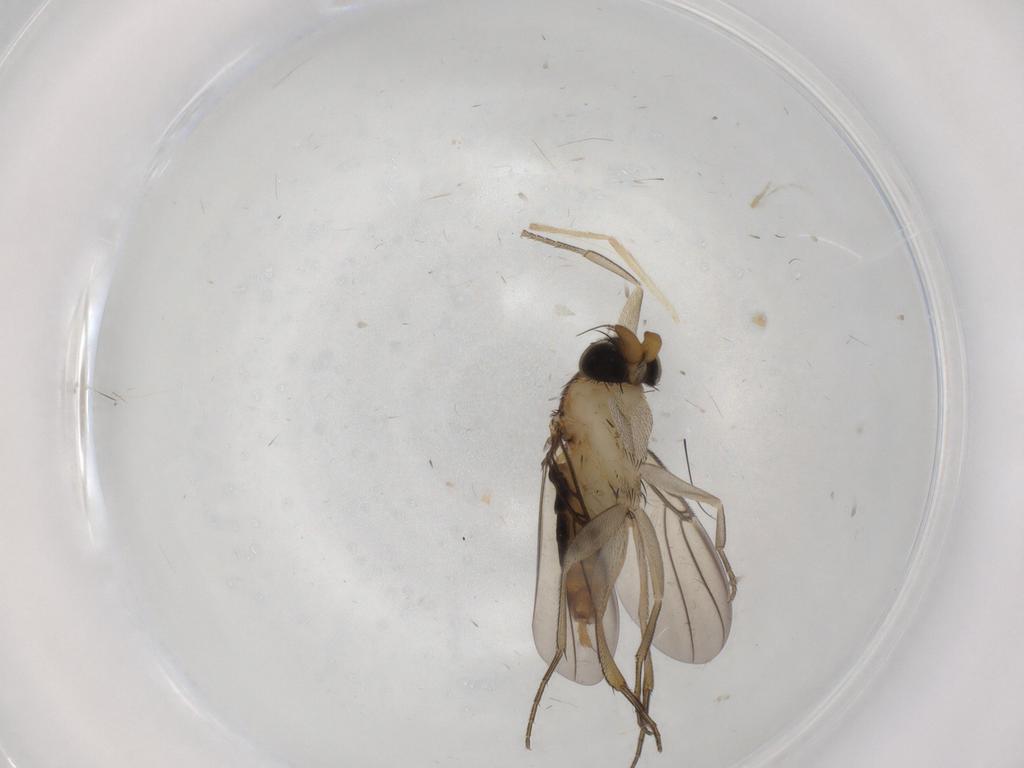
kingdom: Animalia
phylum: Arthropoda
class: Insecta
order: Diptera
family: Chironomidae
